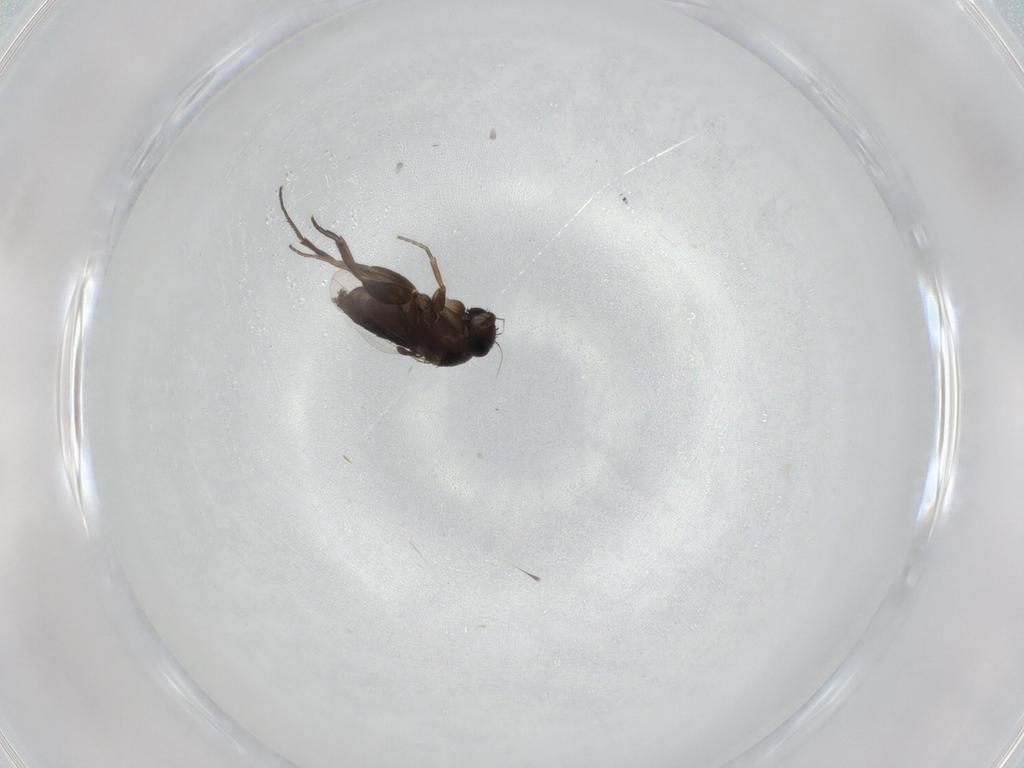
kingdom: Animalia
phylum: Arthropoda
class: Insecta
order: Diptera
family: Phoridae
